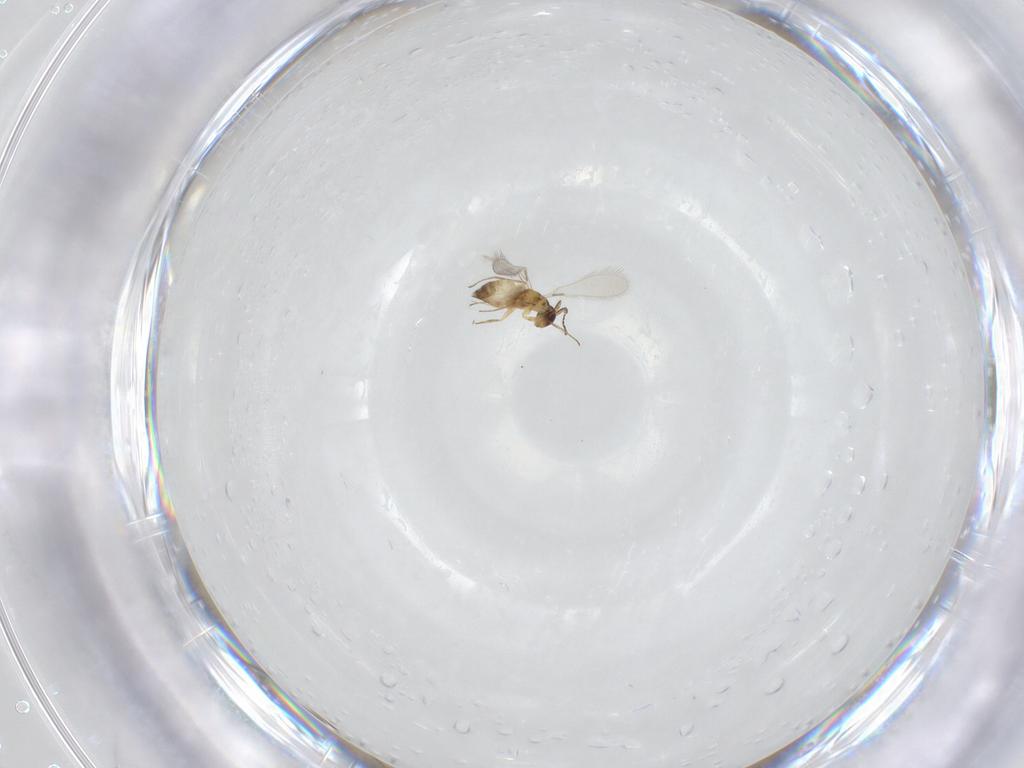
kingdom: Animalia
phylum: Arthropoda
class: Insecta
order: Hymenoptera
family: Mymaridae
